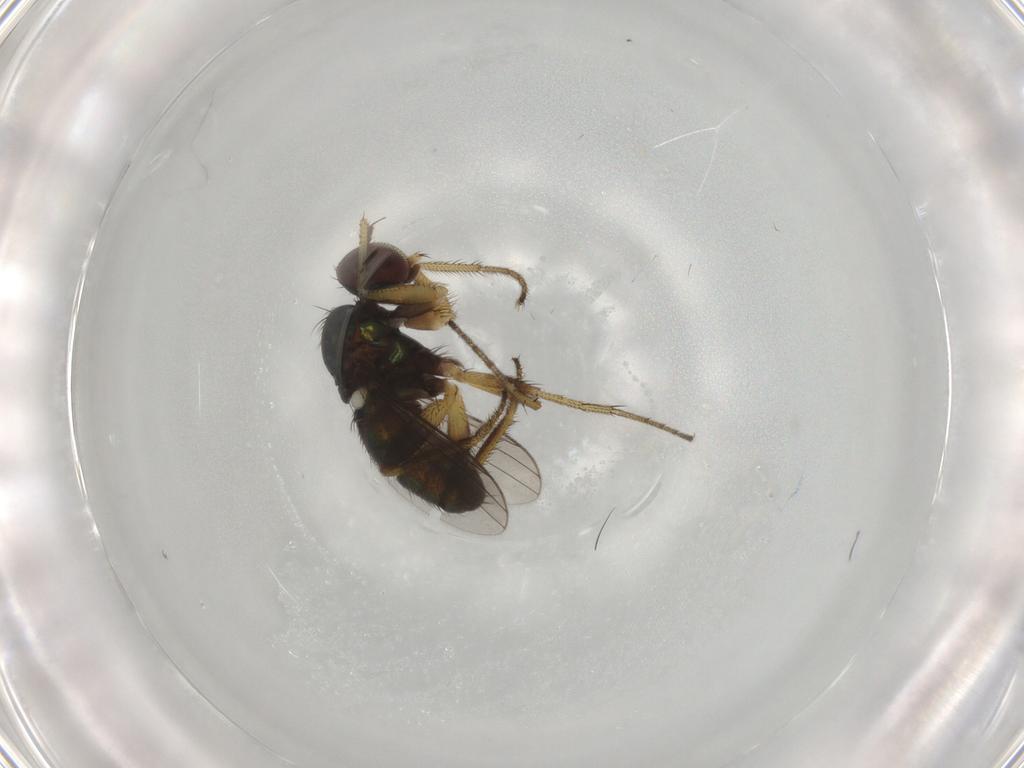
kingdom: Animalia
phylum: Arthropoda
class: Insecta
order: Diptera
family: Dolichopodidae
